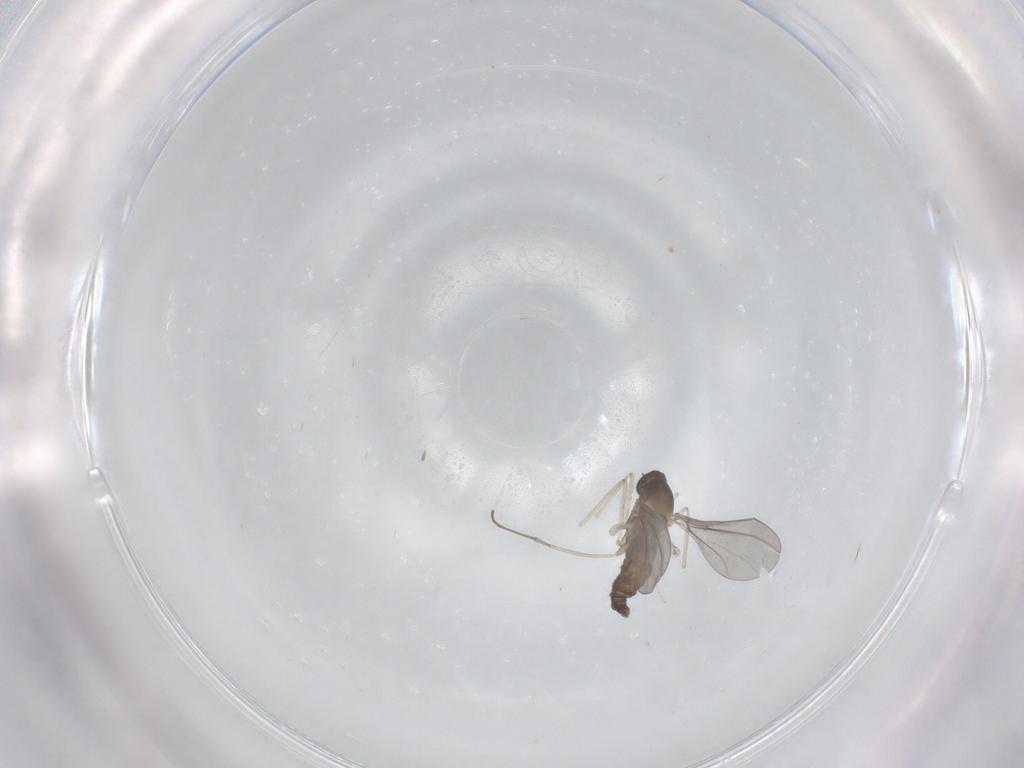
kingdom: Animalia
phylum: Arthropoda
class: Insecta
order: Diptera
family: Cecidomyiidae
